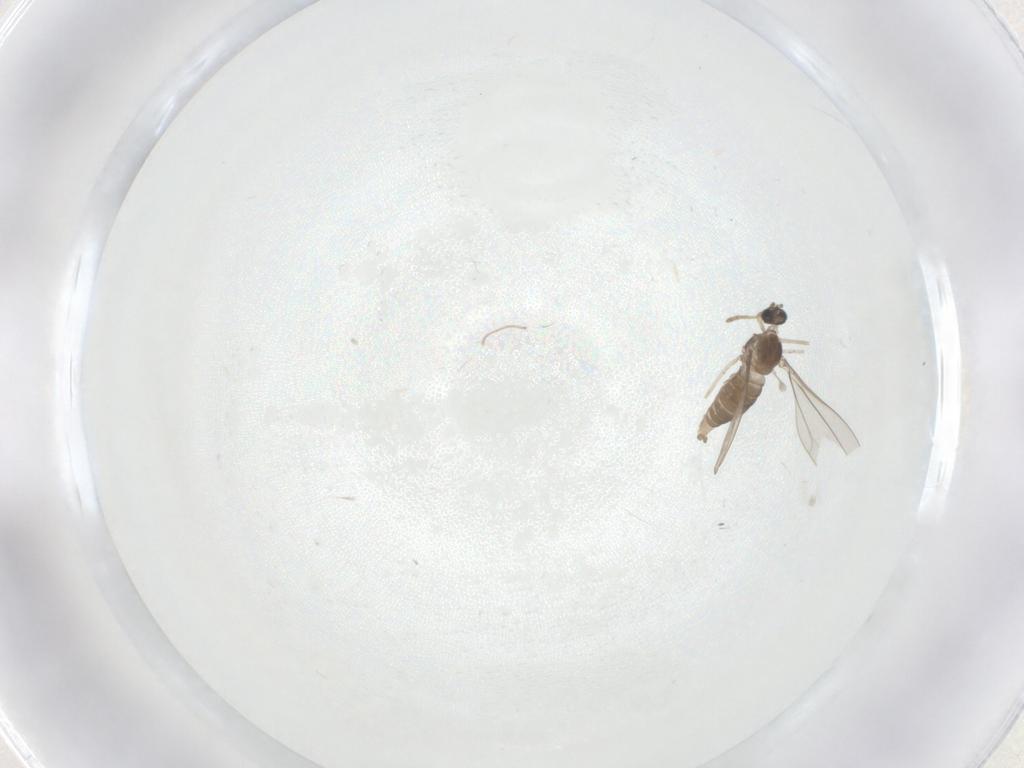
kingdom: Animalia
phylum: Arthropoda
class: Insecta
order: Diptera
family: Cecidomyiidae
